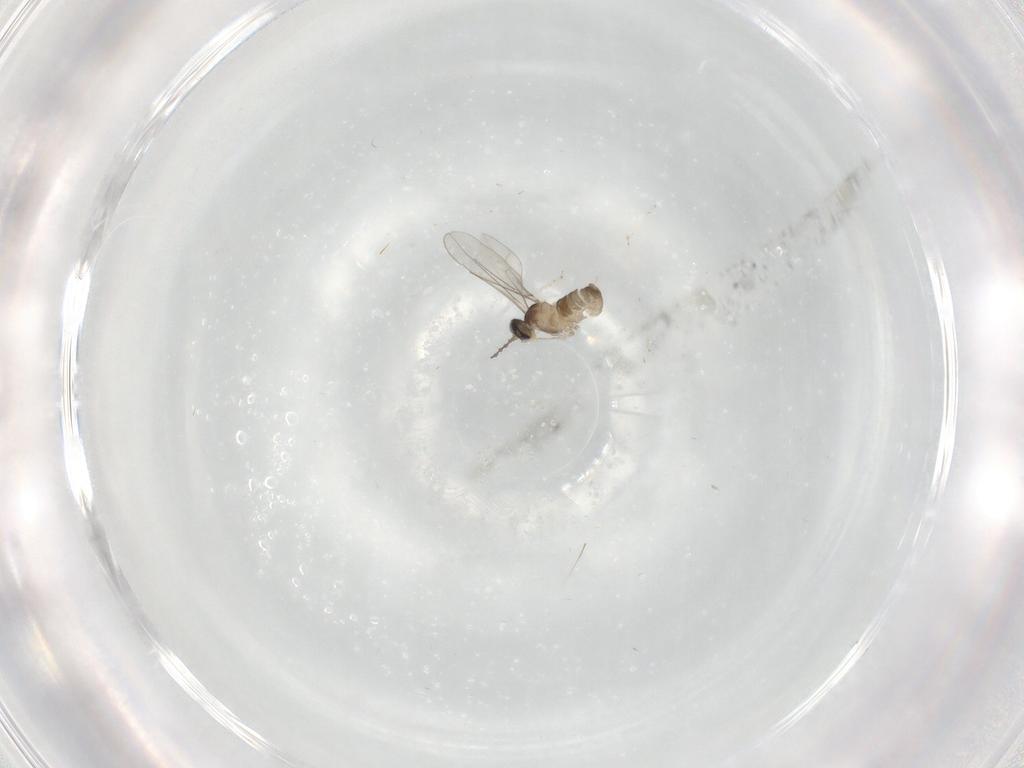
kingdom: Animalia
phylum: Arthropoda
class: Insecta
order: Diptera
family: Cecidomyiidae
